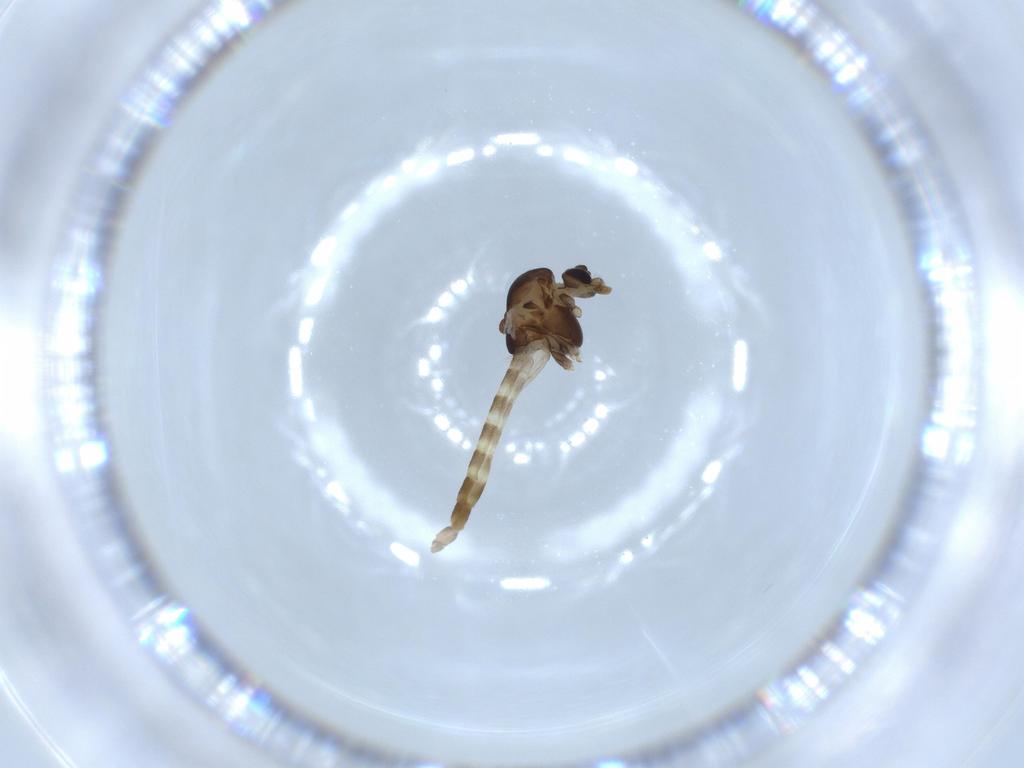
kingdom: Animalia
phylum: Arthropoda
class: Insecta
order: Diptera
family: Chironomidae
